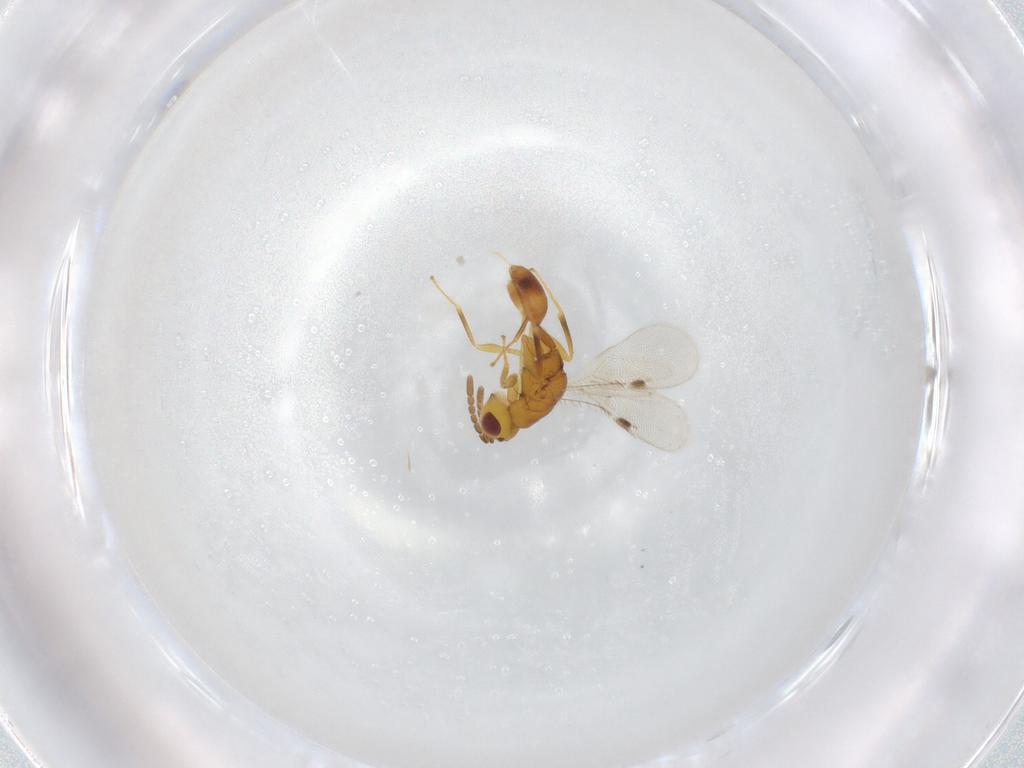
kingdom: Animalia
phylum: Arthropoda
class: Insecta
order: Hymenoptera
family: Eurytomidae
